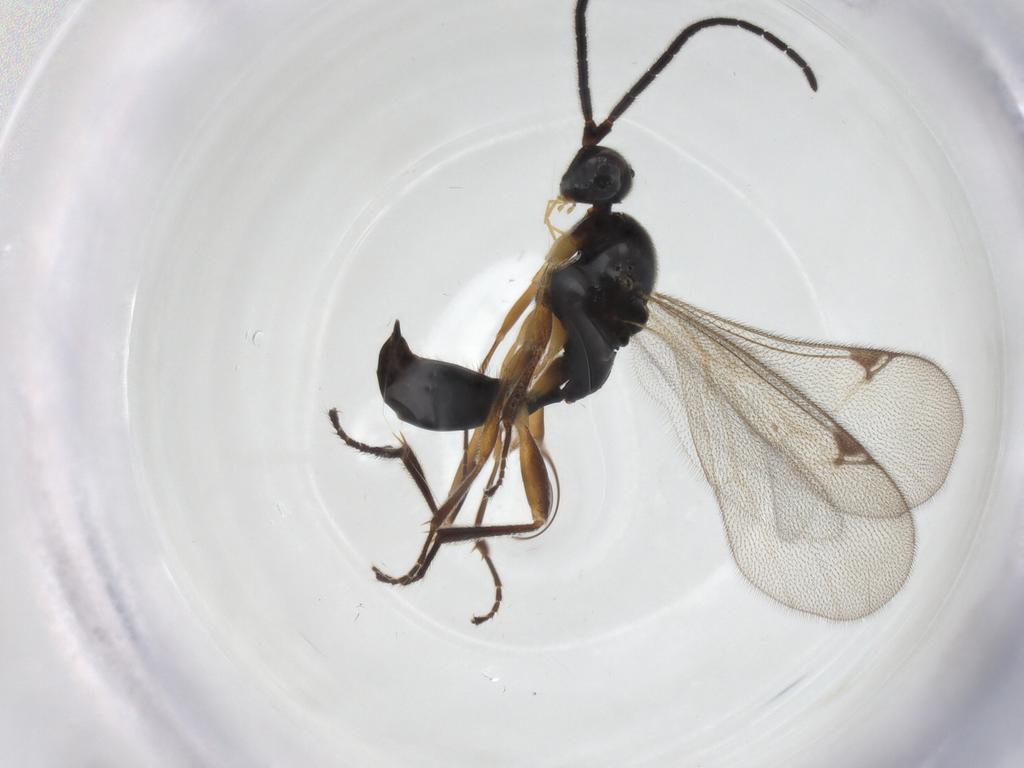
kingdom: Animalia
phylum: Arthropoda
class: Insecta
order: Hymenoptera
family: Proctotrupidae
